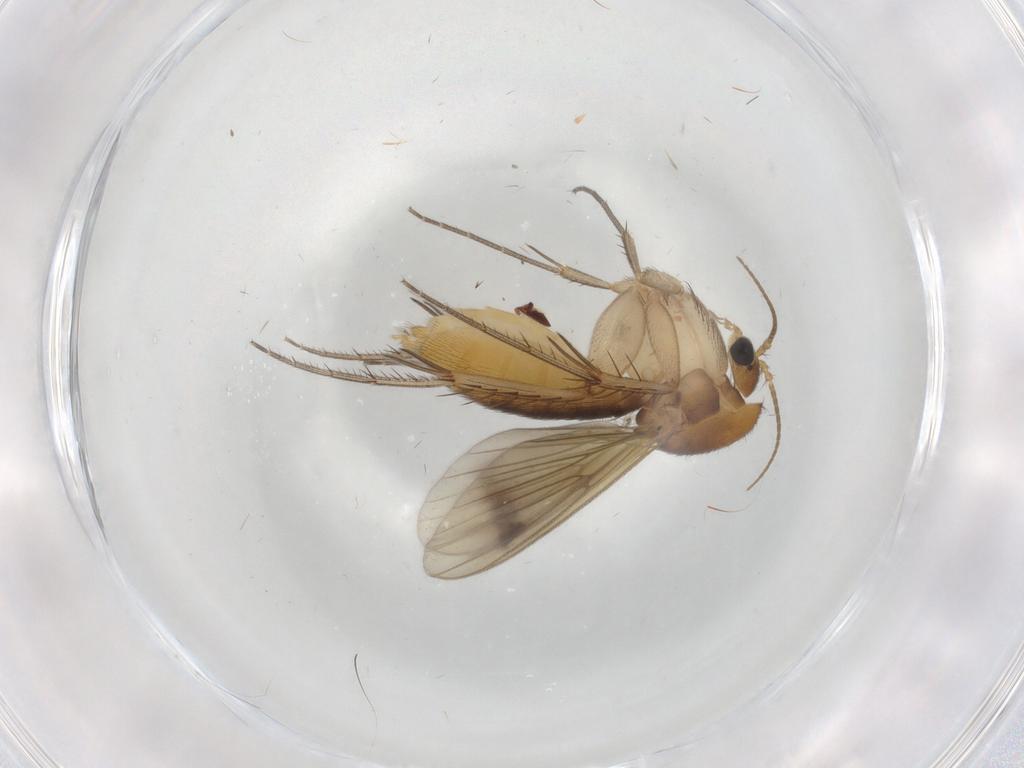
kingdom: Animalia
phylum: Arthropoda
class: Insecta
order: Diptera
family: Mycetophilidae
